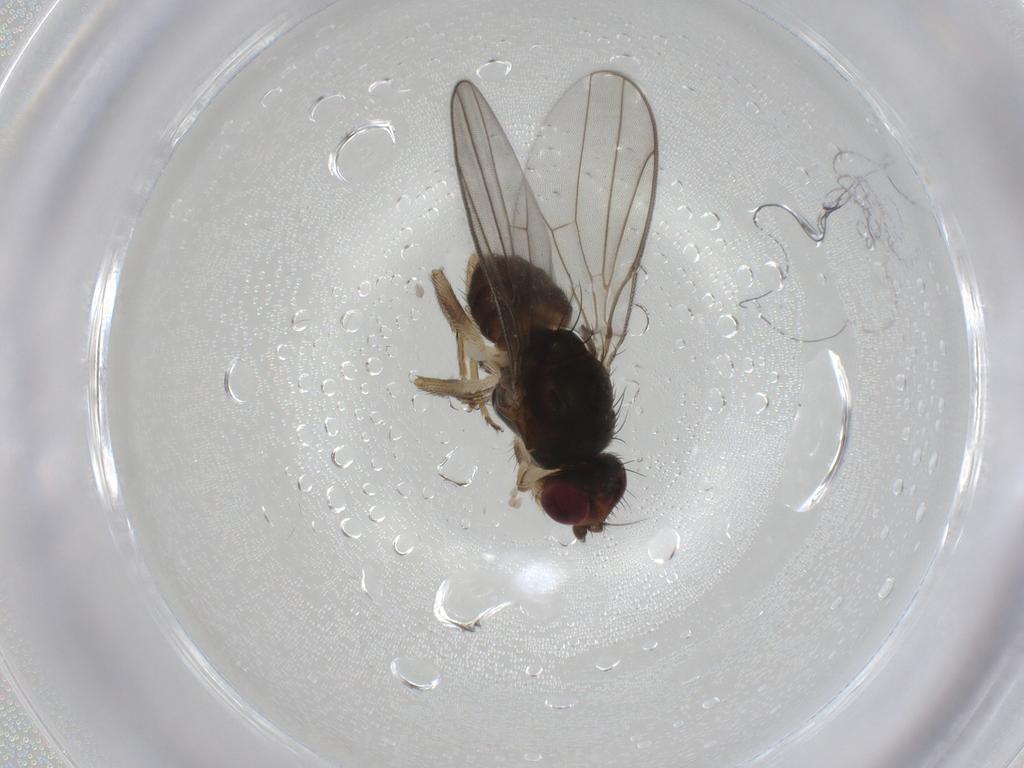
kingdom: Animalia
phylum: Arthropoda
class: Insecta
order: Diptera
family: Chloropidae
